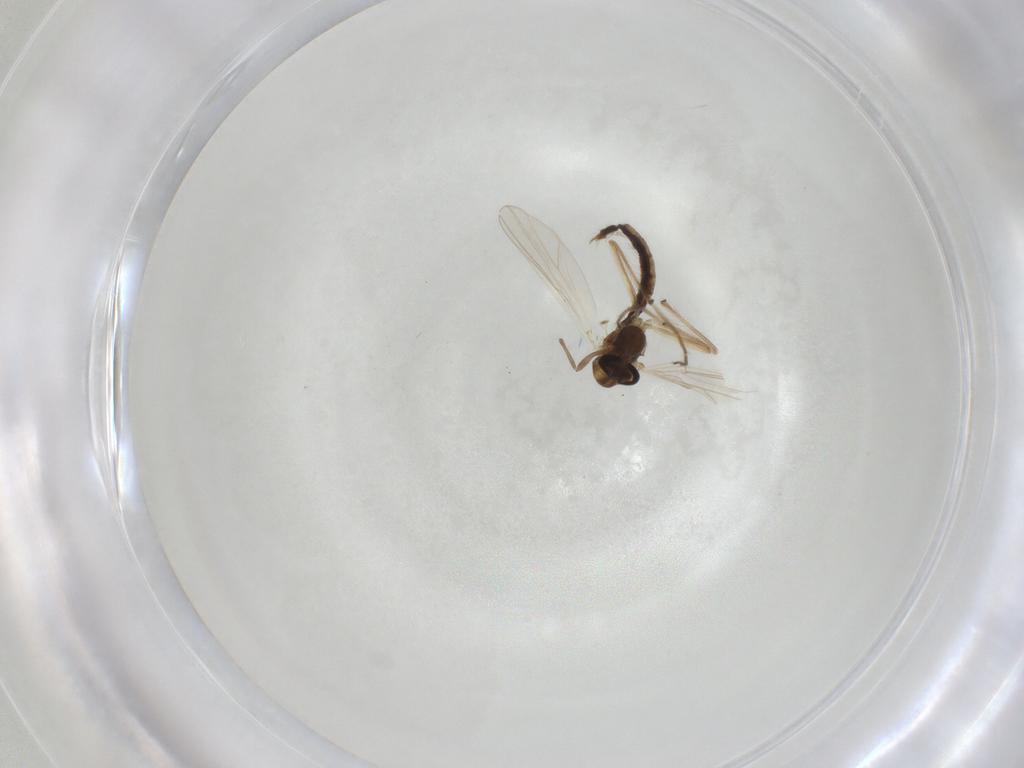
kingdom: Animalia
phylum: Arthropoda
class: Insecta
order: Diptera
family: Chironomidae
